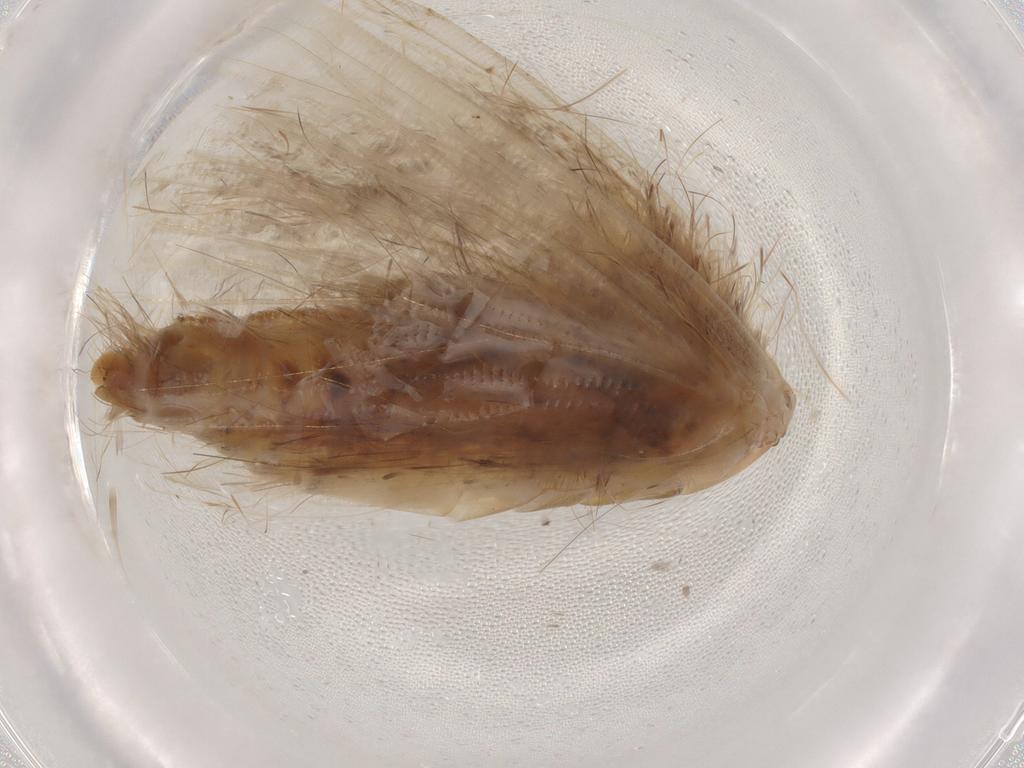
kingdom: Animalia
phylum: Arthropoda
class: Insecta
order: Lepidoptera
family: Geometridae
